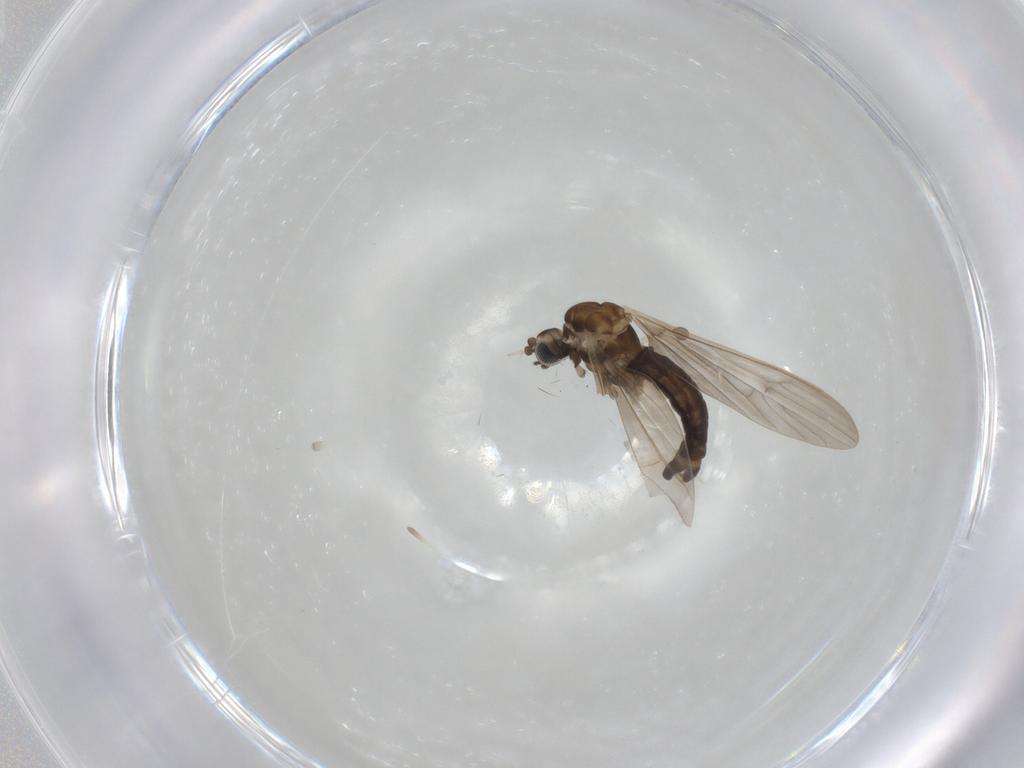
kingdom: Animalia
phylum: Arthropoda
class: Insecta
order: Diptera
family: Limoniidae
